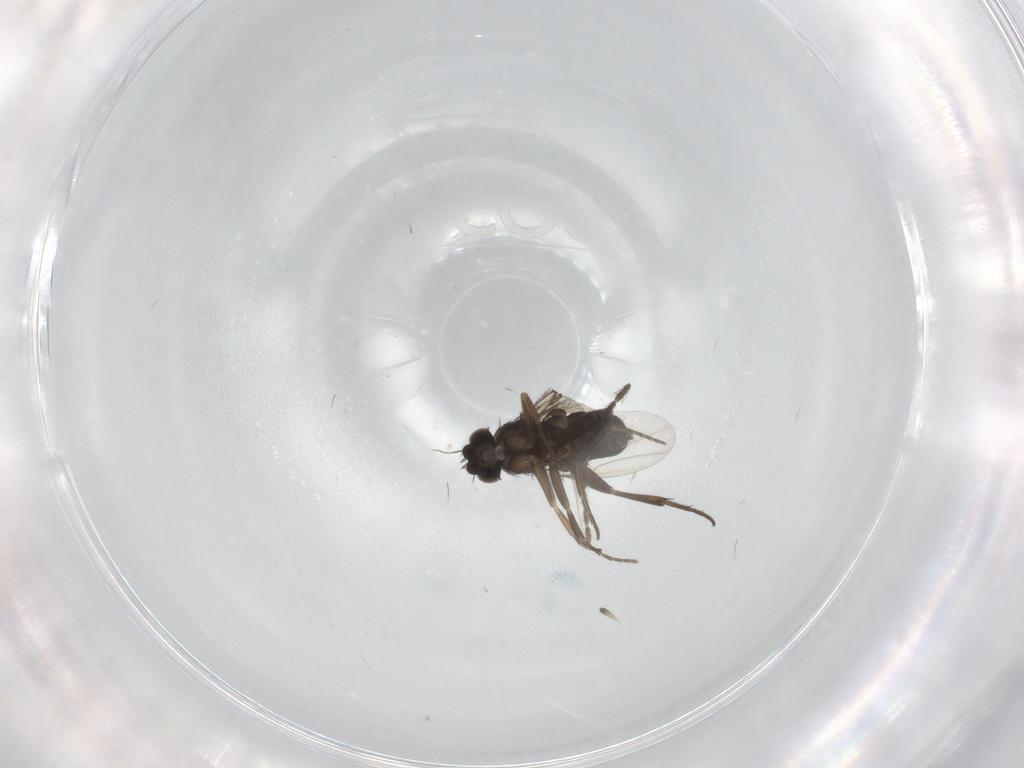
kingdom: Animalia
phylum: Arthropoda
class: Insecta
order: Diptera
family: Phoridae
